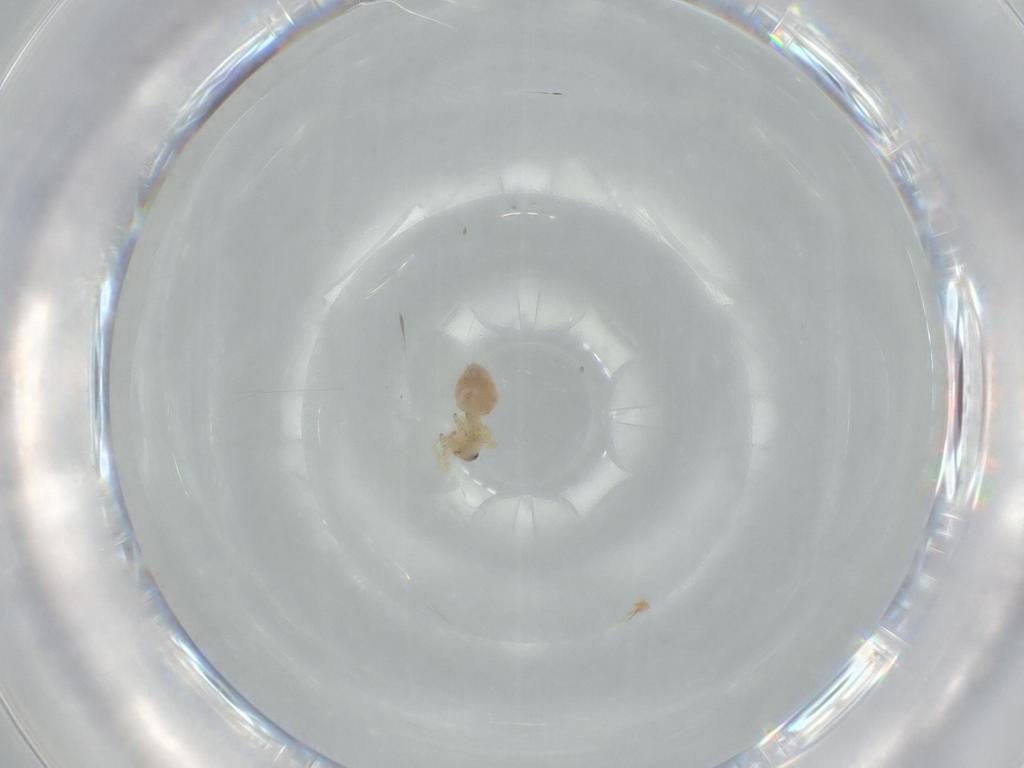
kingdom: Animalia
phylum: Arthropoda
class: Arachnida
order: Araneae
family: Oonopidae
